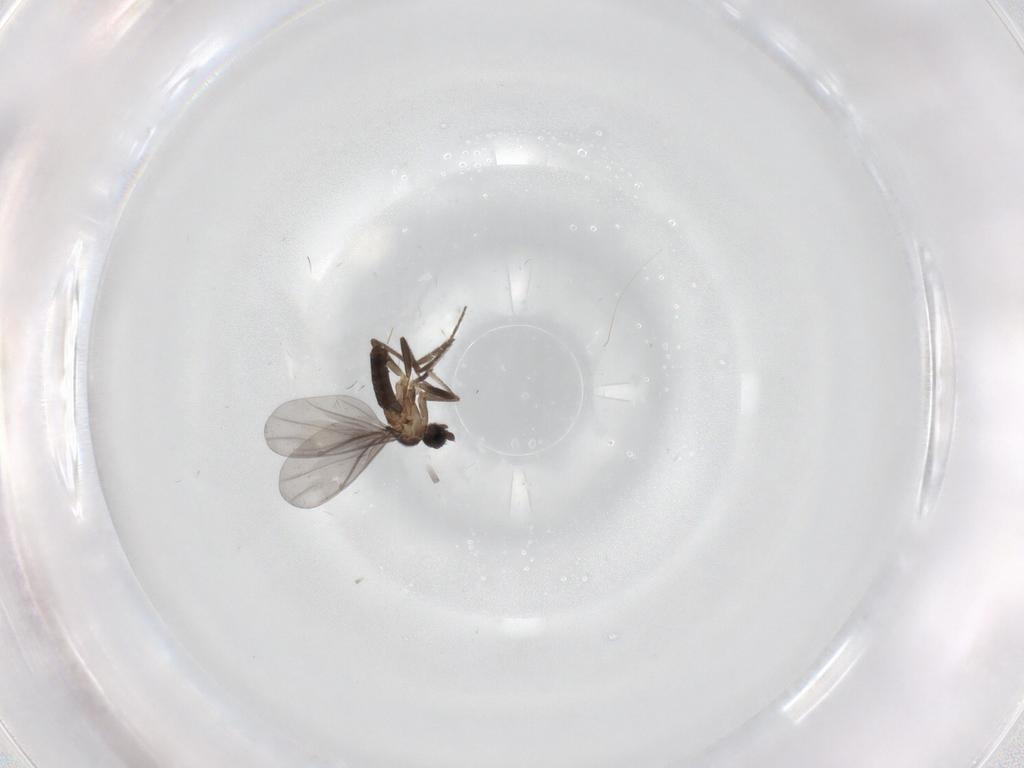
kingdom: Animalia
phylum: Arthropoda
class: Insecta
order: Diptera
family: Phoridae
